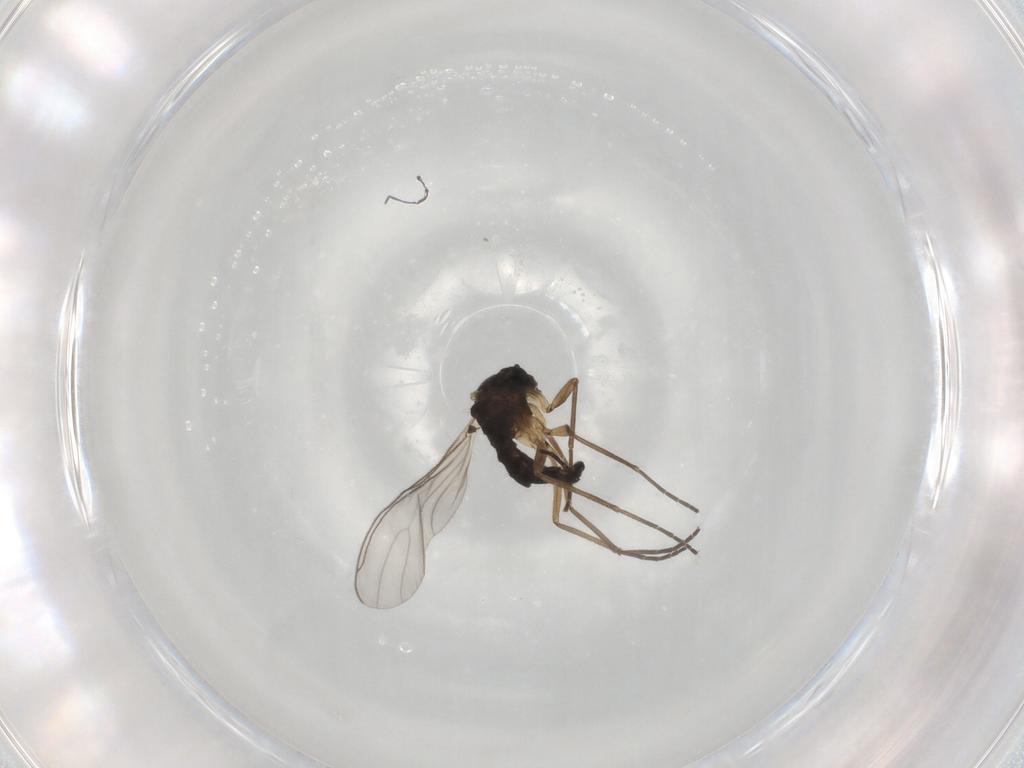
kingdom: Animalia
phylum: Arthropoda
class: Insecta
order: Diptera
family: Sciaridae
